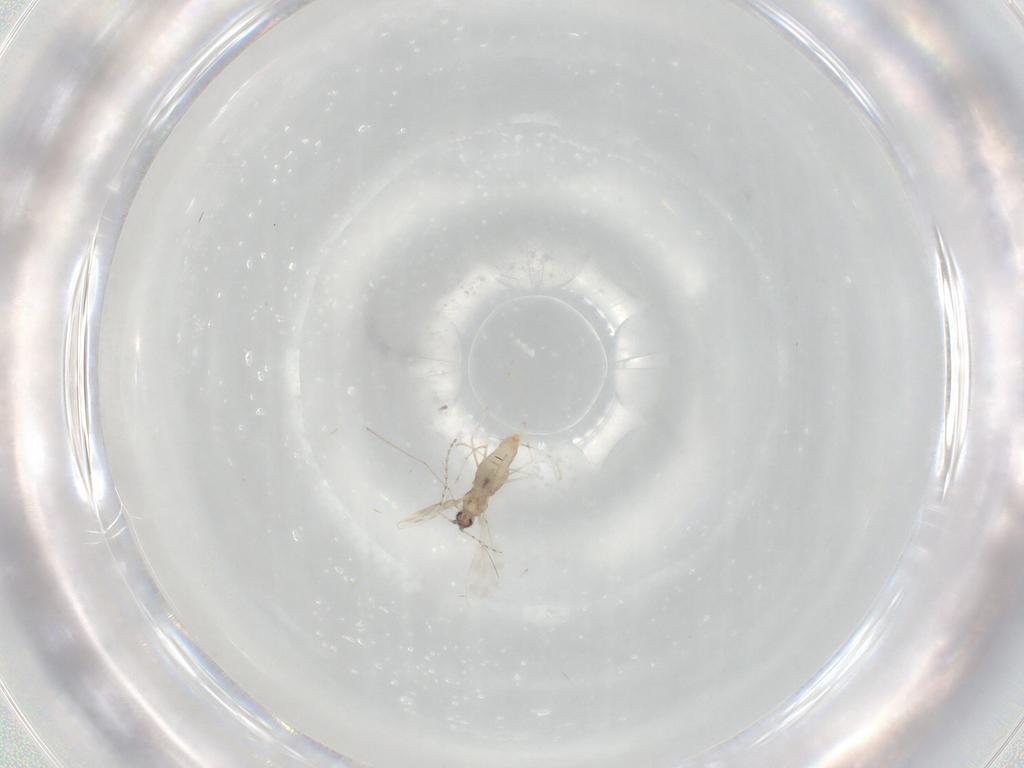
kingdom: Animalia
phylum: Arthropoda
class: Insecta
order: Diptera
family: Cecidomyiidae
